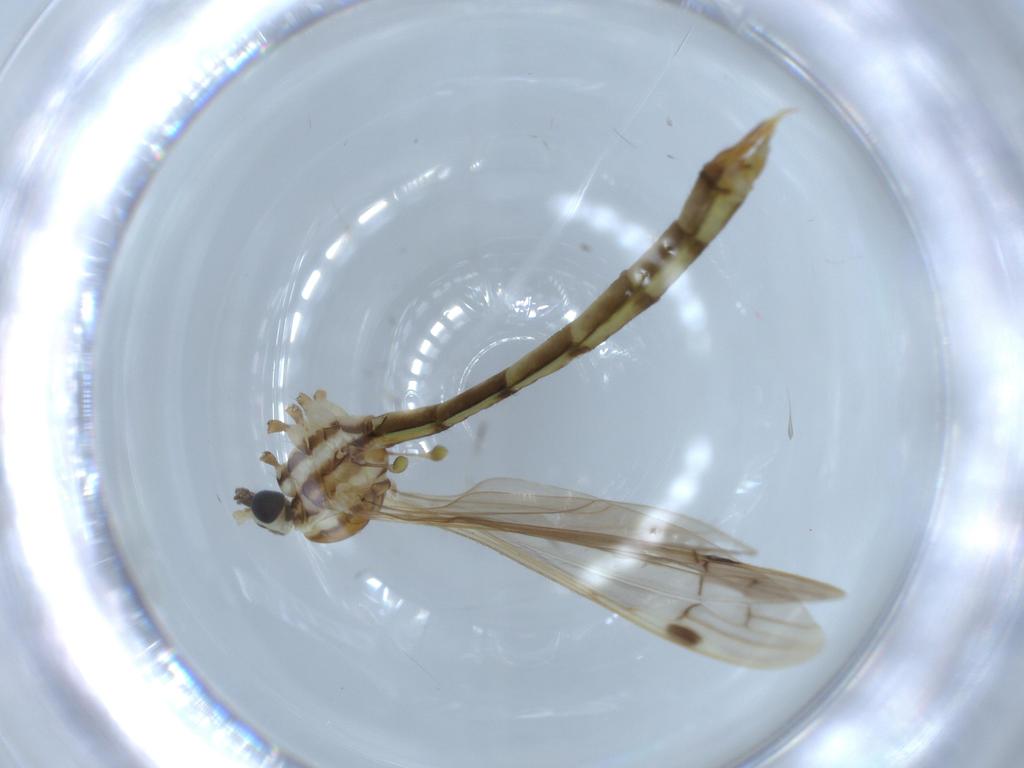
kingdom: Animalia
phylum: Arthropoda
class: Insecta
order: Diptera
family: Limoniidae
